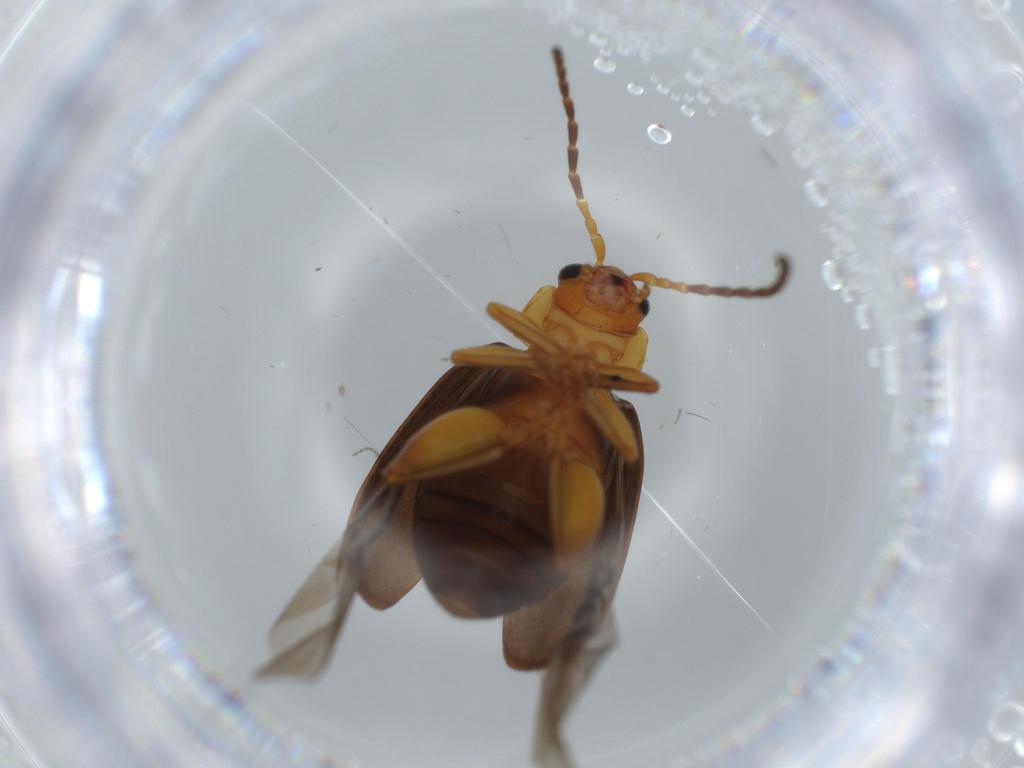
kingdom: Animalia
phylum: Arthropoda
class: Insecta
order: Coleoptera
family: Chrysomelidae
